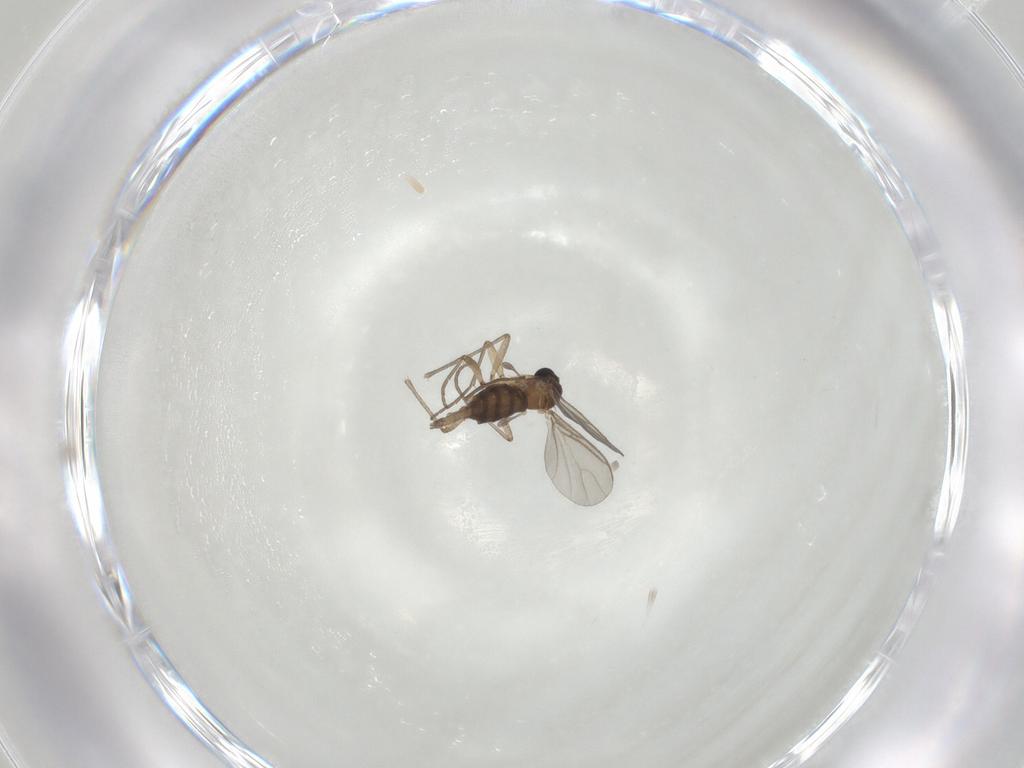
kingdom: Animalia
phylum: Arthropoda
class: Insecta
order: Diptera
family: Sciaridae
